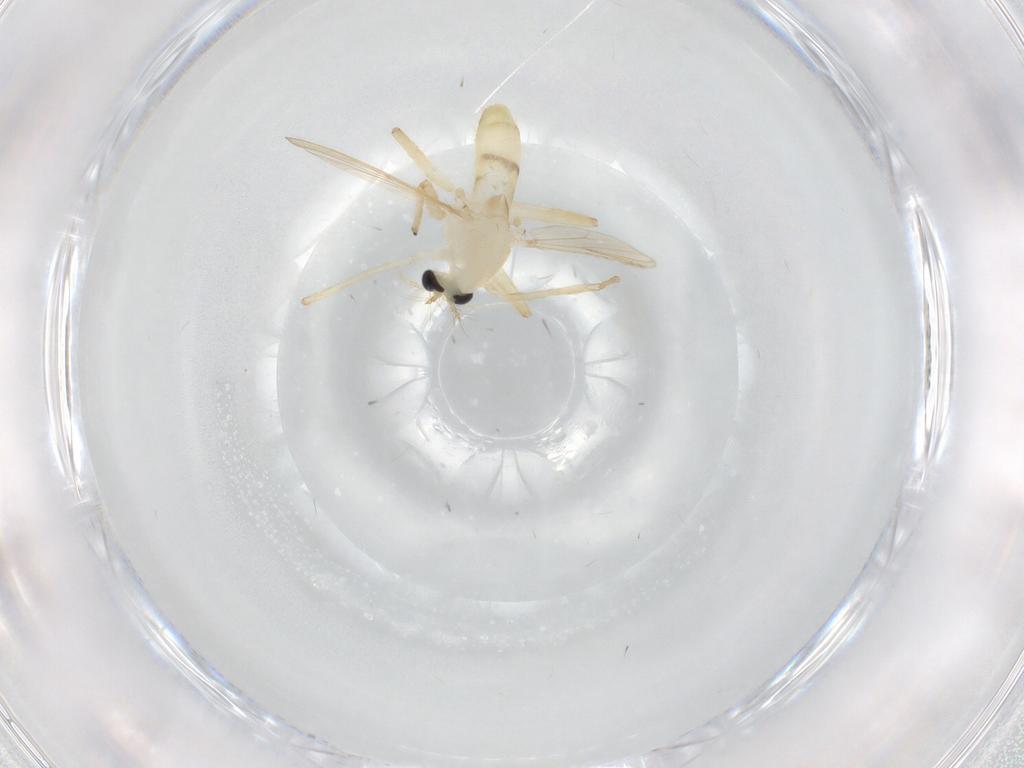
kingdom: Animalia
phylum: Arthropoda
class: Insecta
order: Diptera
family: Chironomidae
